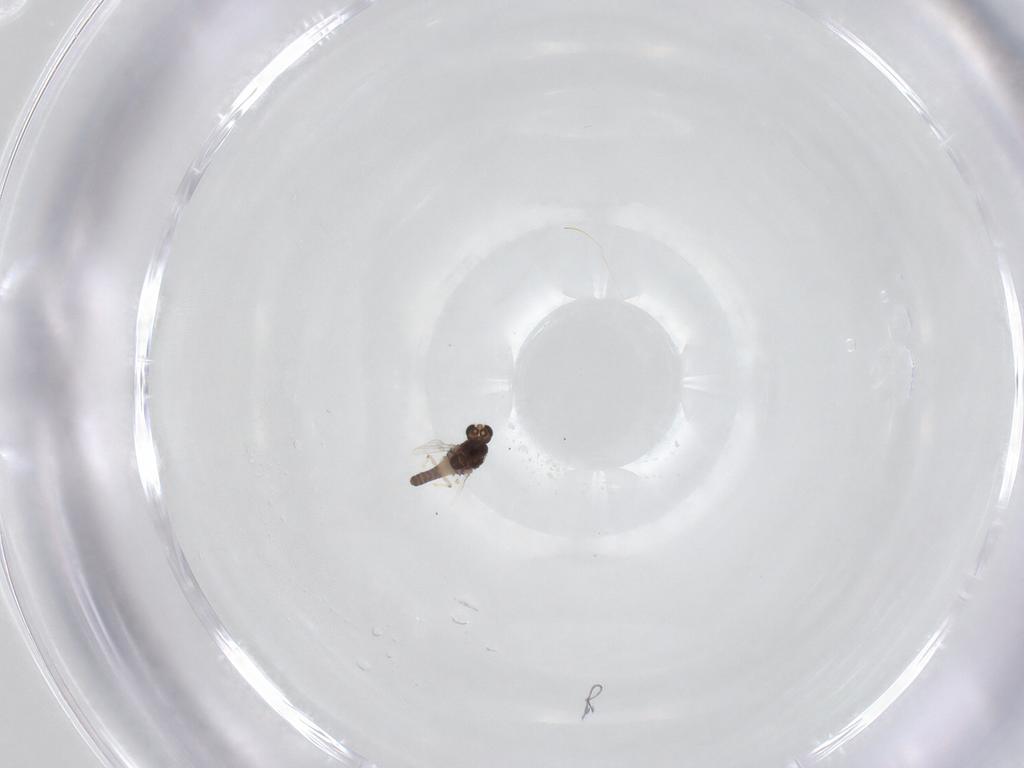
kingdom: Animalia
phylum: Arthropoda
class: Insecta
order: Diptera
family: Chironomidae
